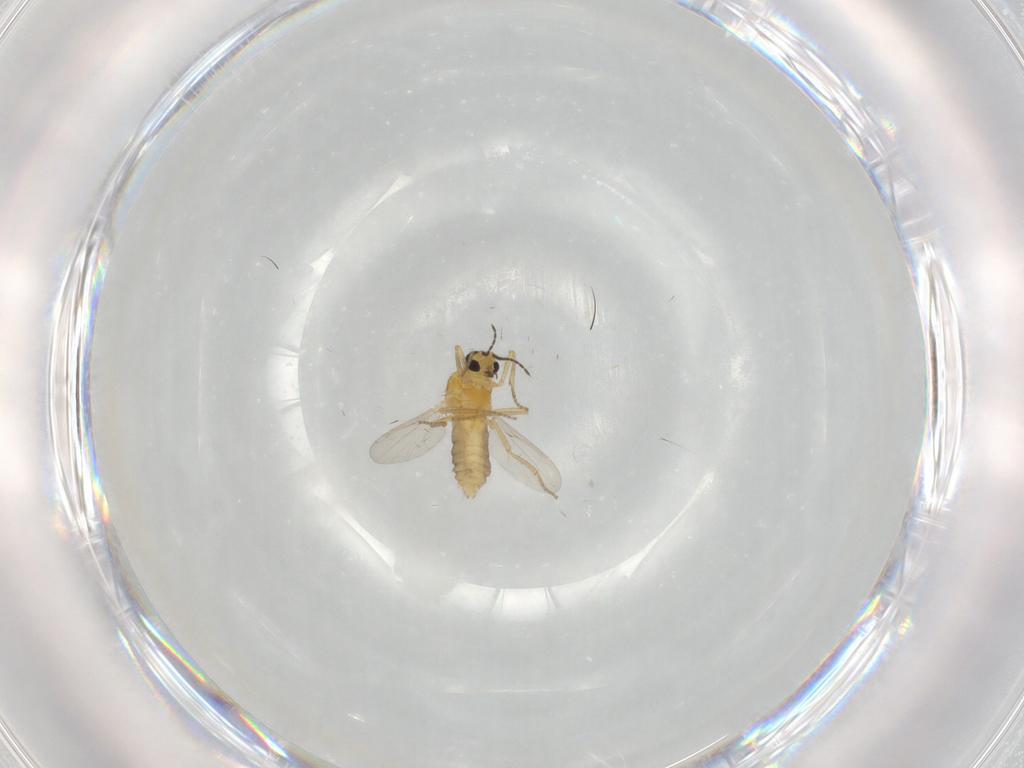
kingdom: Animalia
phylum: Arthropoda
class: Insecta
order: Diptera
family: Ceratopogonidae
